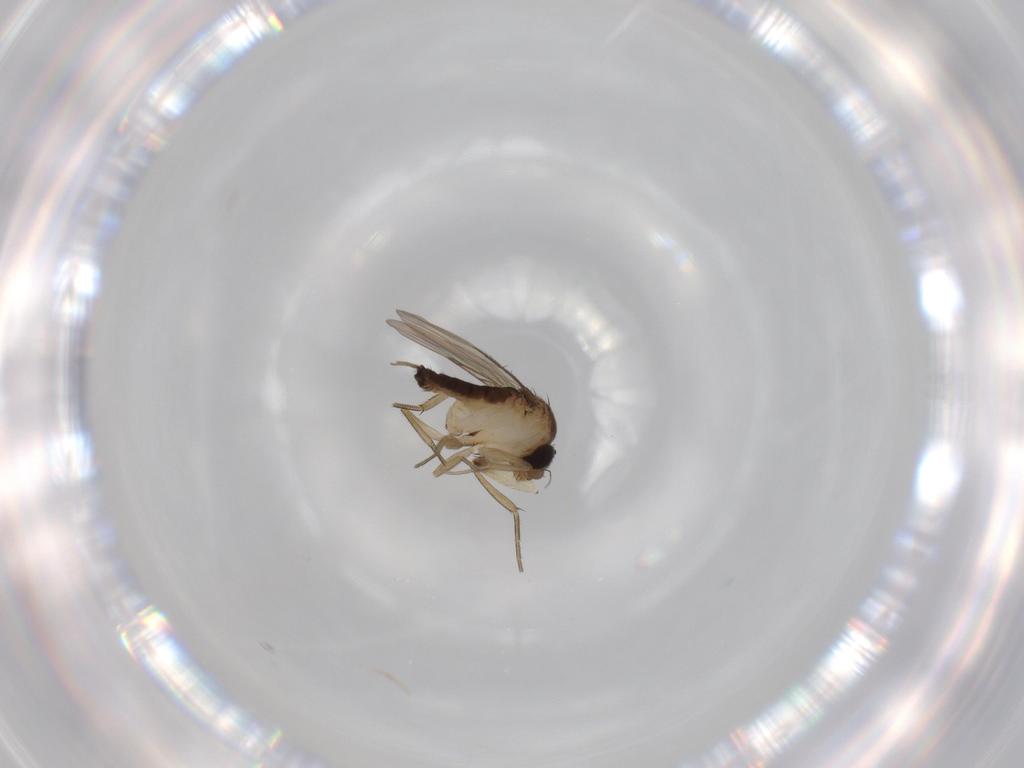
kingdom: Animalia
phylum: Arthropoda
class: Insecta
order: Diptera
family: Phoridae
